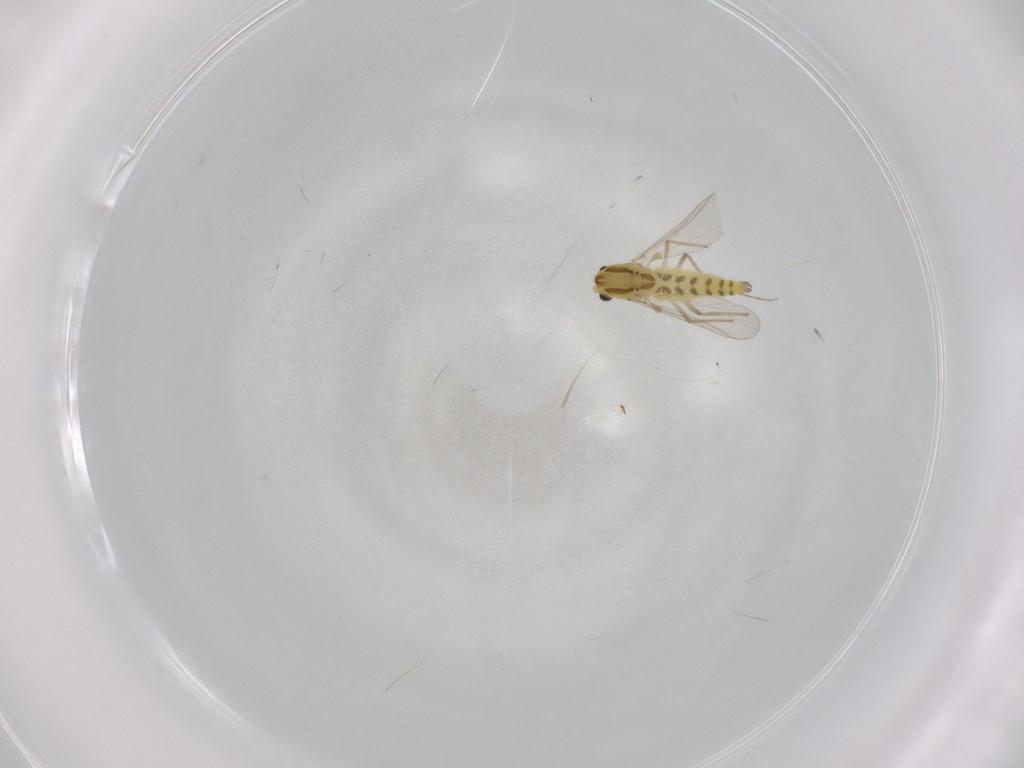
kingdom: Animalia
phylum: Arthropoda
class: Insecta
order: Diptera
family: Chironomidae
